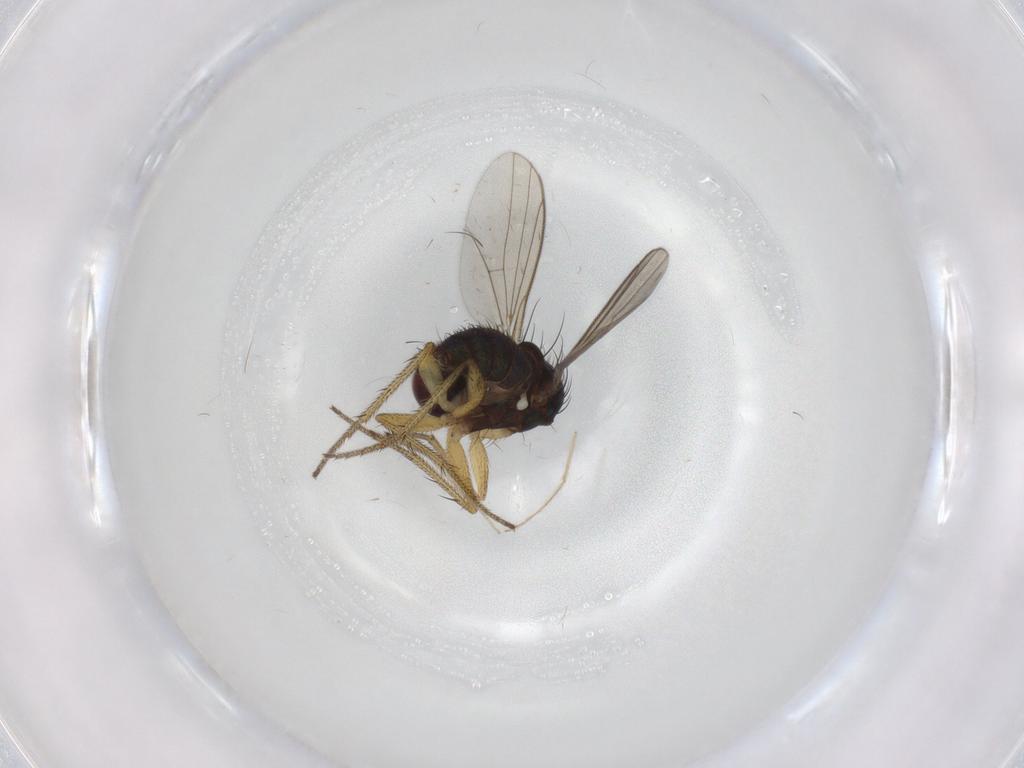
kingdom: Animalia
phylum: Arthropoda
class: Insecta
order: Diptera
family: Chironomidae
